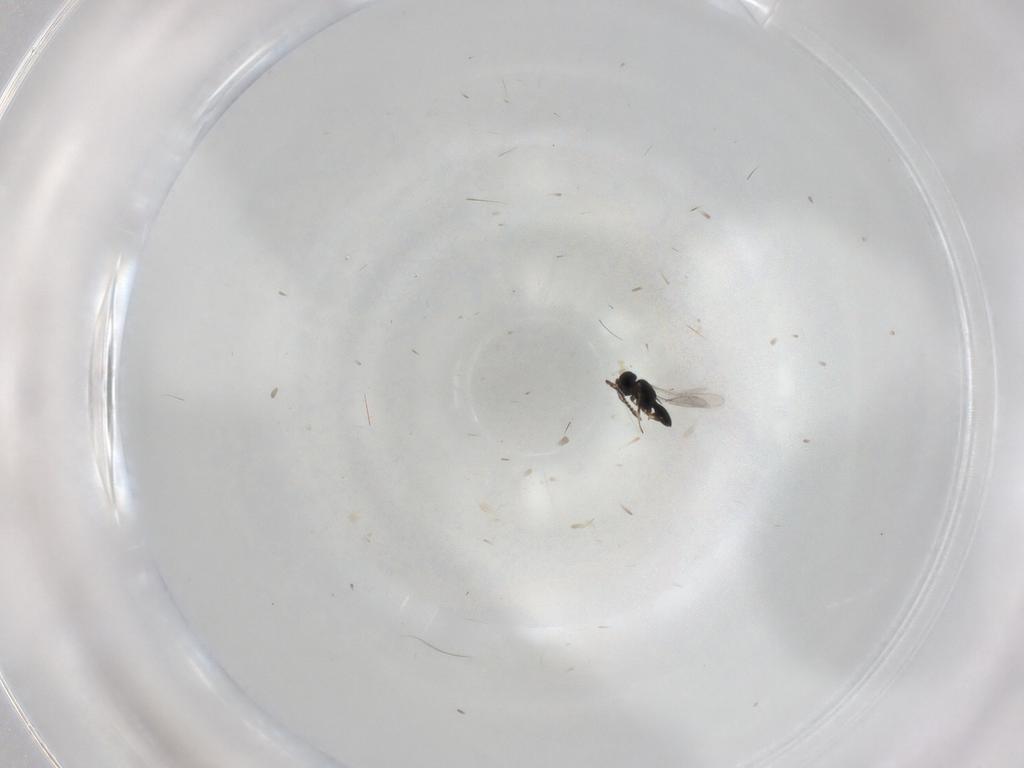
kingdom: Animalia
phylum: Arthropoda
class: Insecta
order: Hymenoptera
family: Scelionidae
